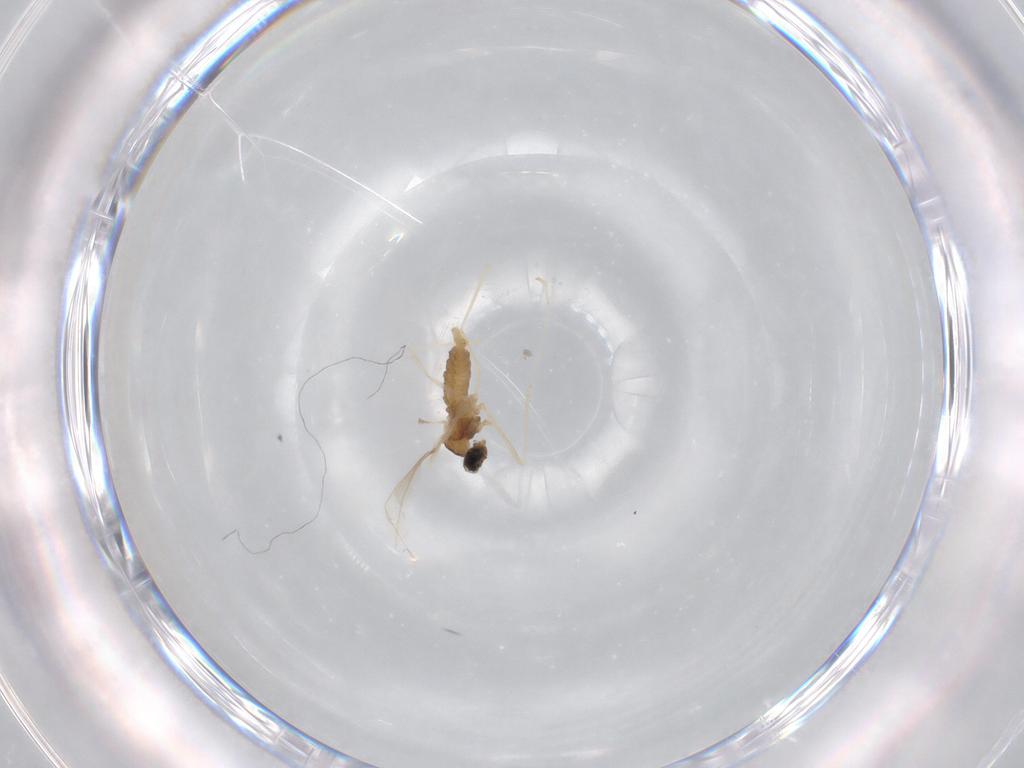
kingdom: Animalia
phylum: Arthropoda
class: Insecta
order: Diptera
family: Cecidomyiidae
